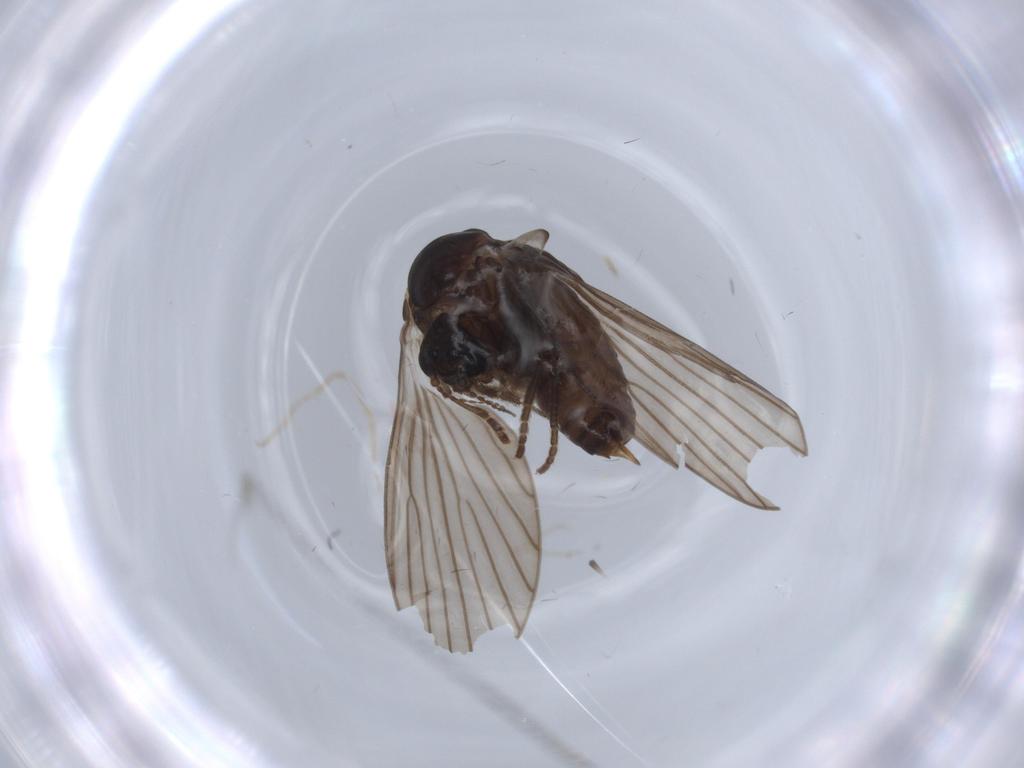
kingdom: Animalia
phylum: Arthropoda
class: Insecta
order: Diptera
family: Psychodidae
